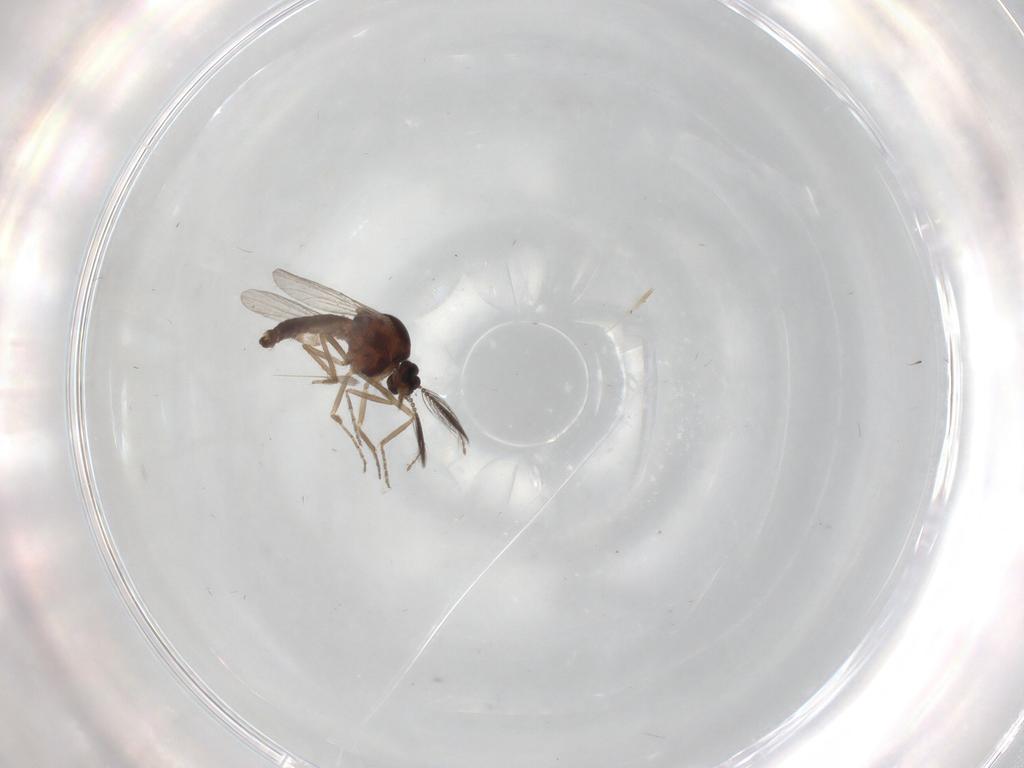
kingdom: Animalia
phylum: Arthropoda
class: Insecta
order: Diptera
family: Ceratopogonidae
